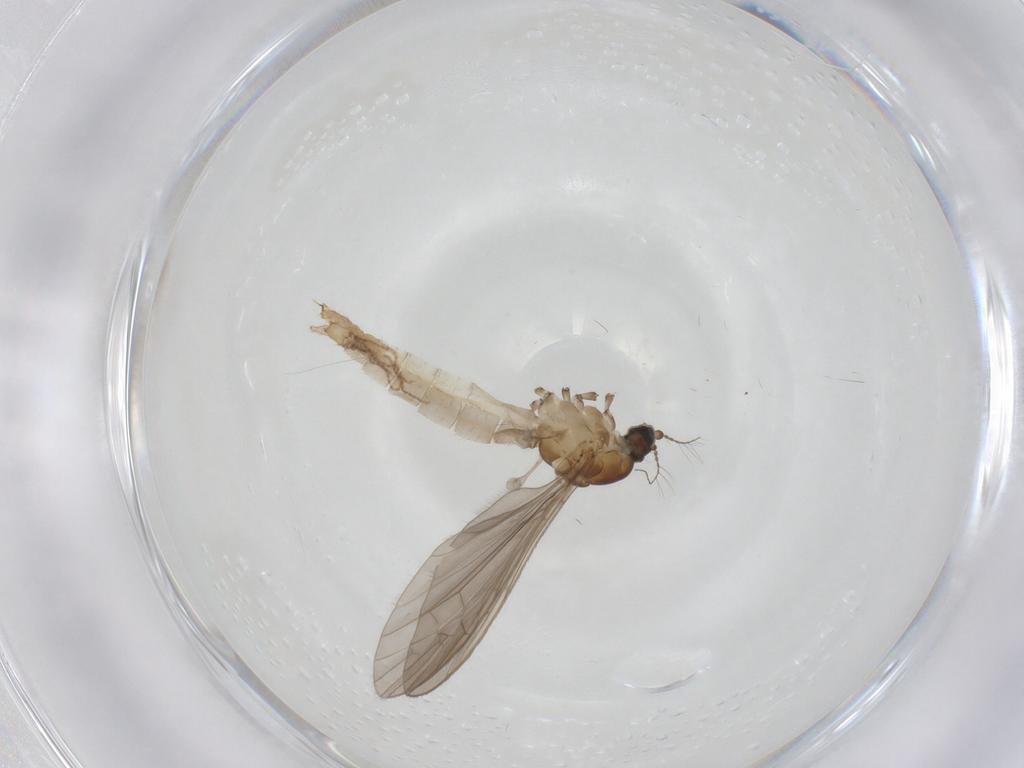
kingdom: Animalia
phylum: Arthropoda
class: Insecta
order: Diptera
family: Limoniidae
